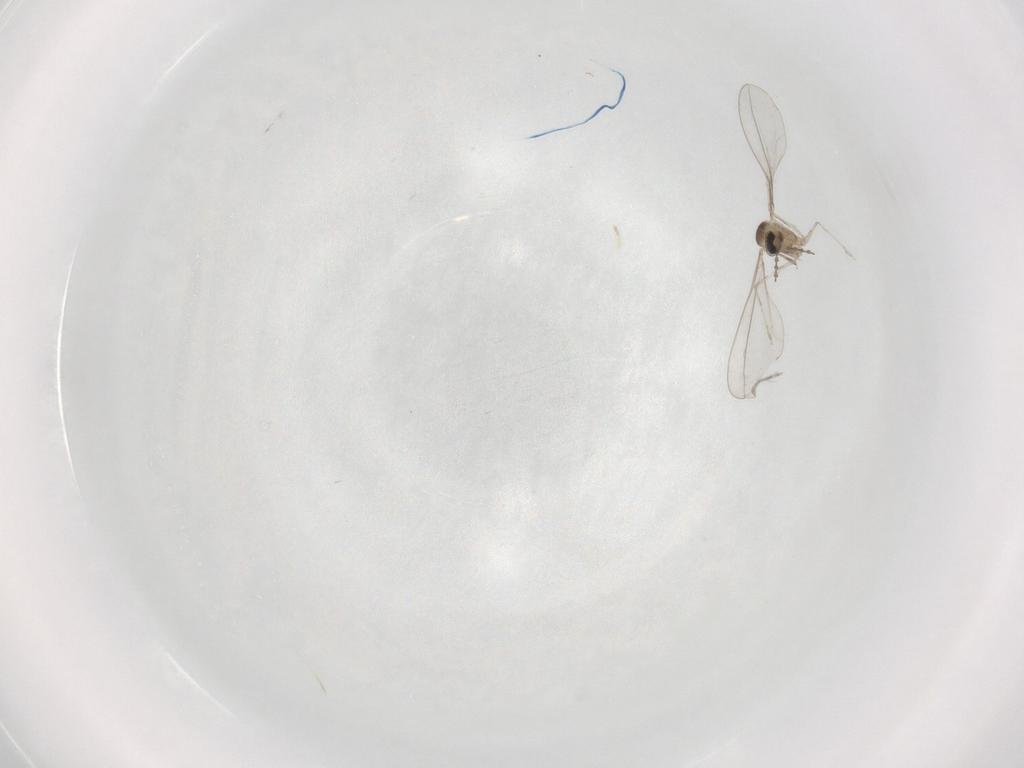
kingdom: Animalia
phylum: Arthropoda
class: Insecta
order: Diptera
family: Cecidomyiidae
